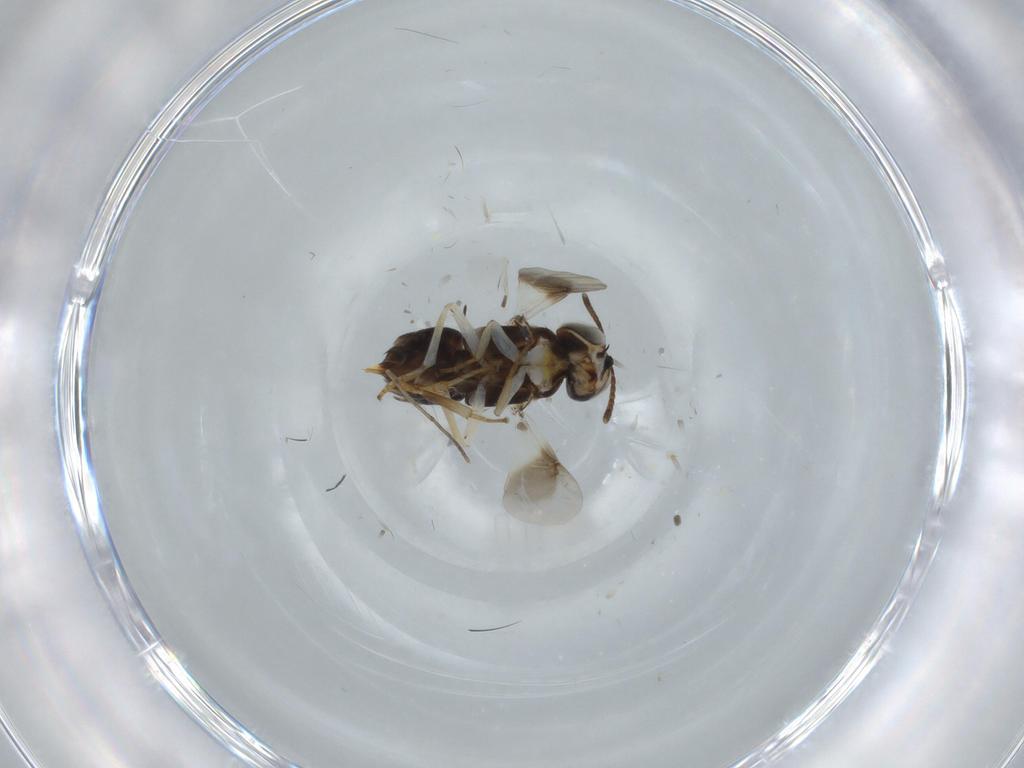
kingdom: Animalia
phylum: Arthropoda
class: Insecta
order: Hymenoptera
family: Formicidae
